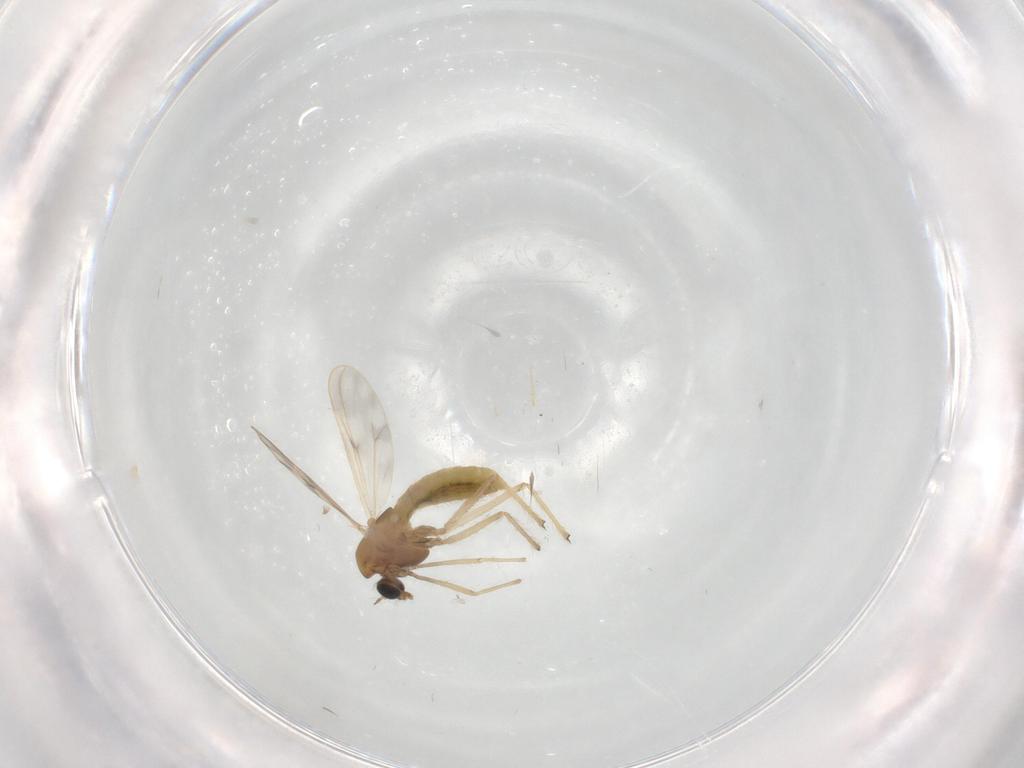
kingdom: Animalia
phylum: Arthropoda
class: Insecta
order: Diptera
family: Chironomidae
